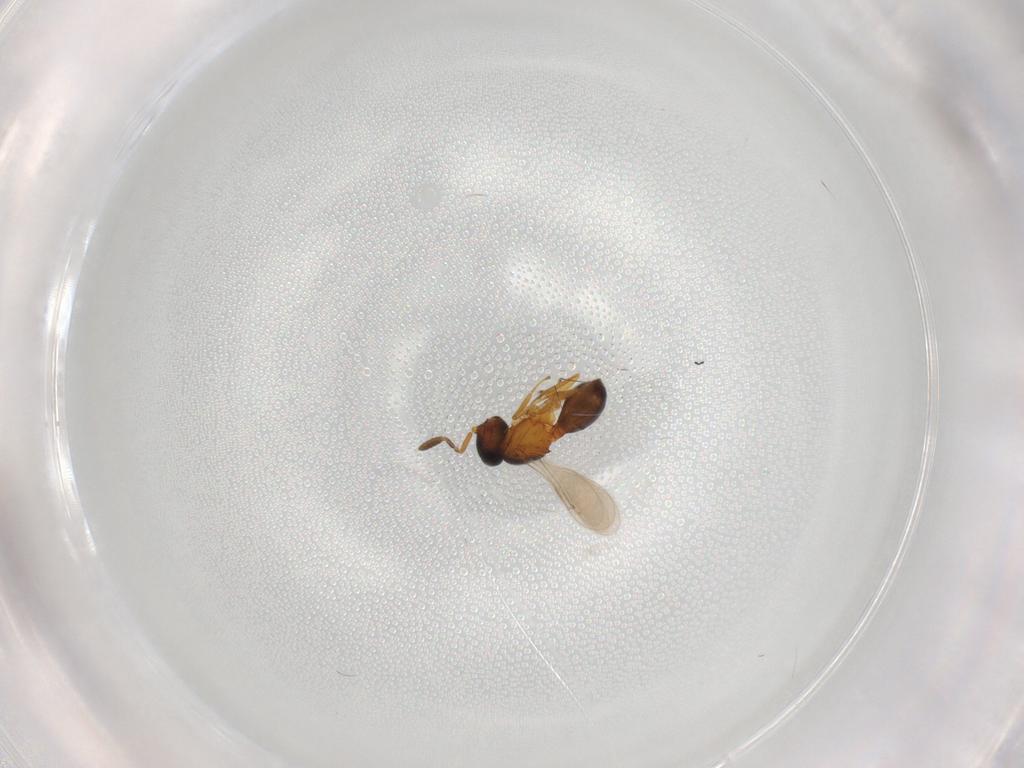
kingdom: Animalia
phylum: Arthropoda
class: Insecta
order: Hymenoptera
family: Scelionidae
